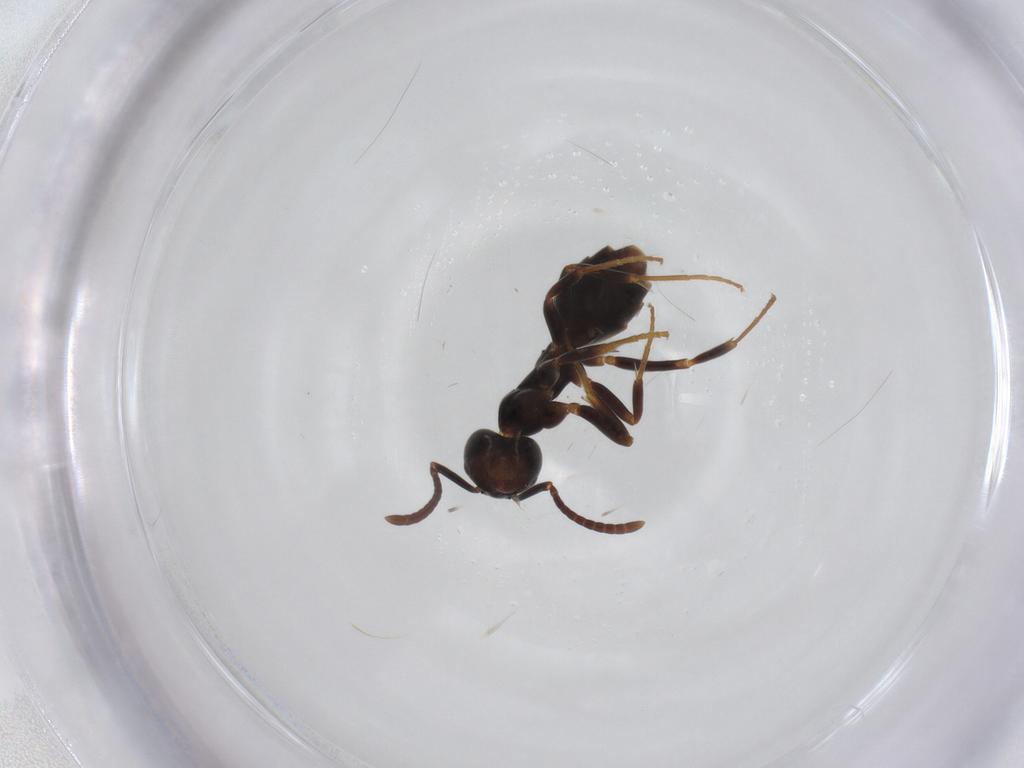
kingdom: Animalia
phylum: Arthropoda
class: Insecta
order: Hymenoptera
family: Formicidae
